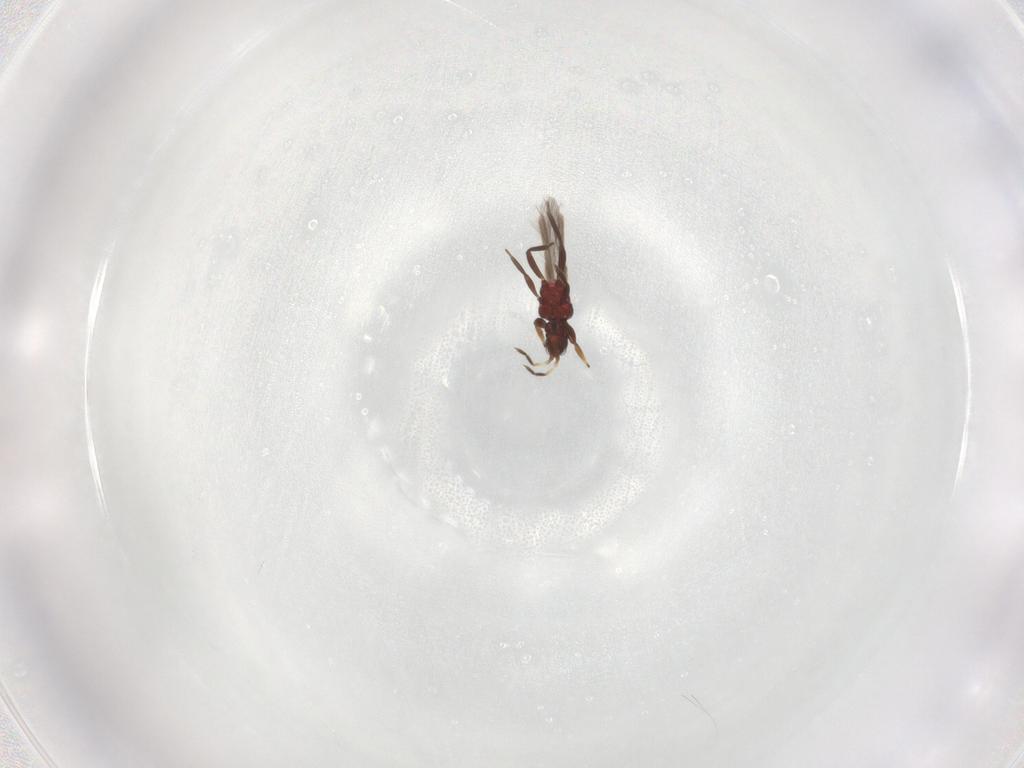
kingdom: Animalia
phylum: Arthropoda
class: Insecta
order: Thysanoptera
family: Aeolothripidae
